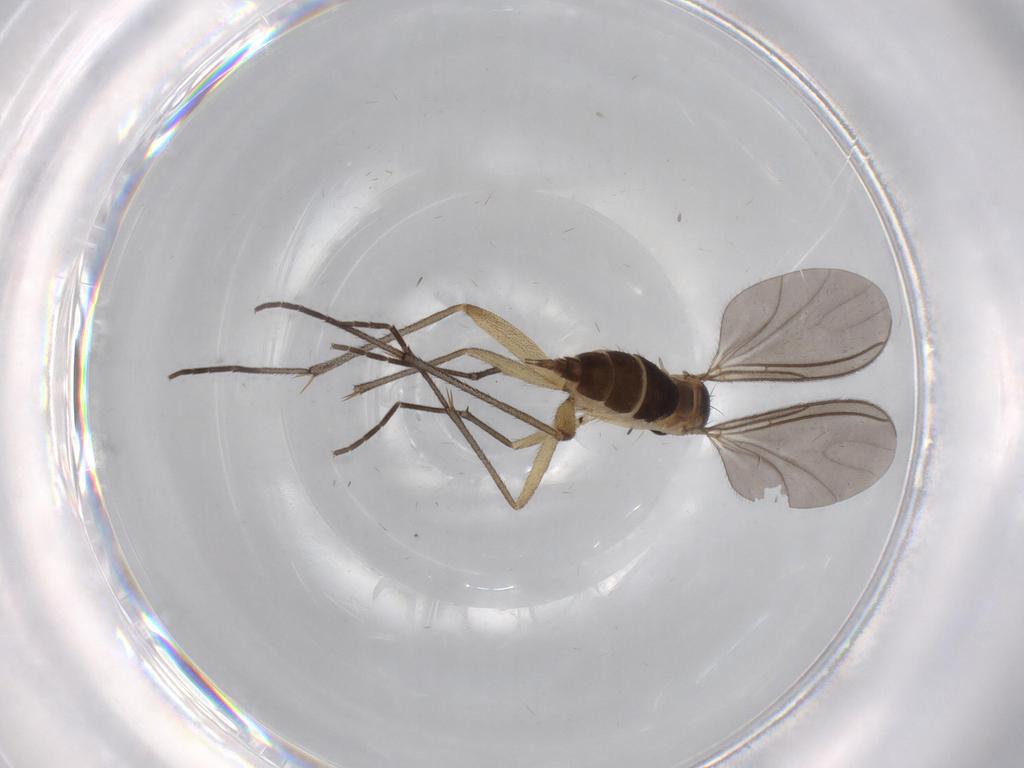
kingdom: Animalia
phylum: Arthropoda
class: Insecta
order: Diptera
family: Sciaridae
